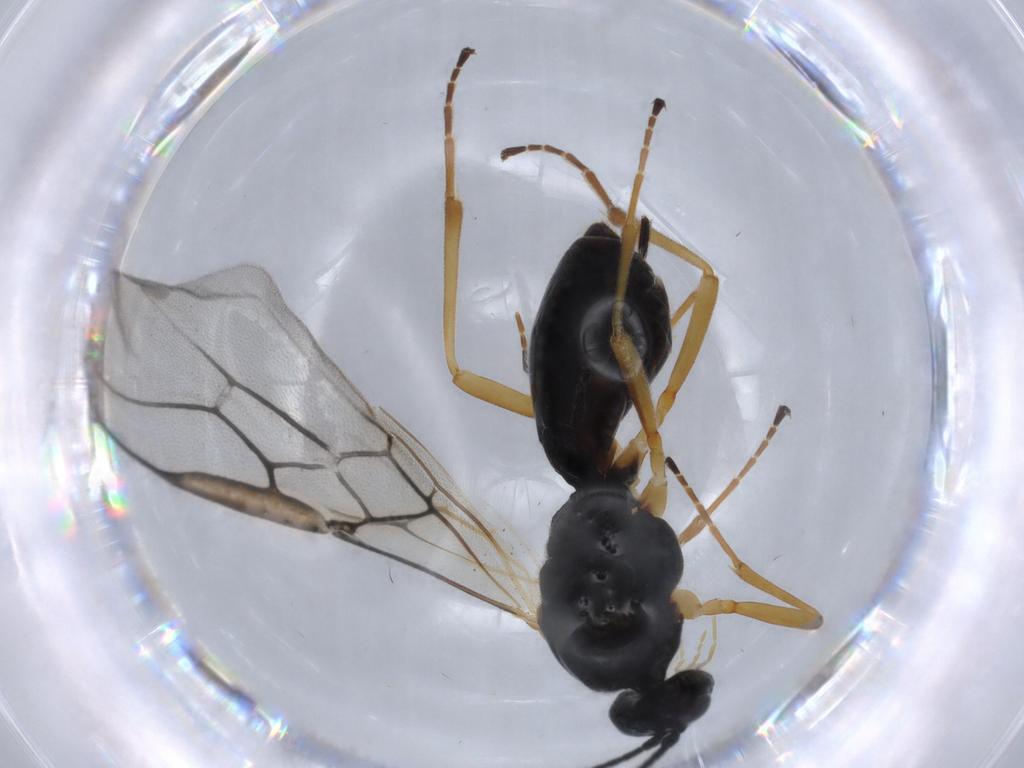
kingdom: Animalia
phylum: Arthropoda
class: Insecta
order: Hymenoptera
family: Braconidae
